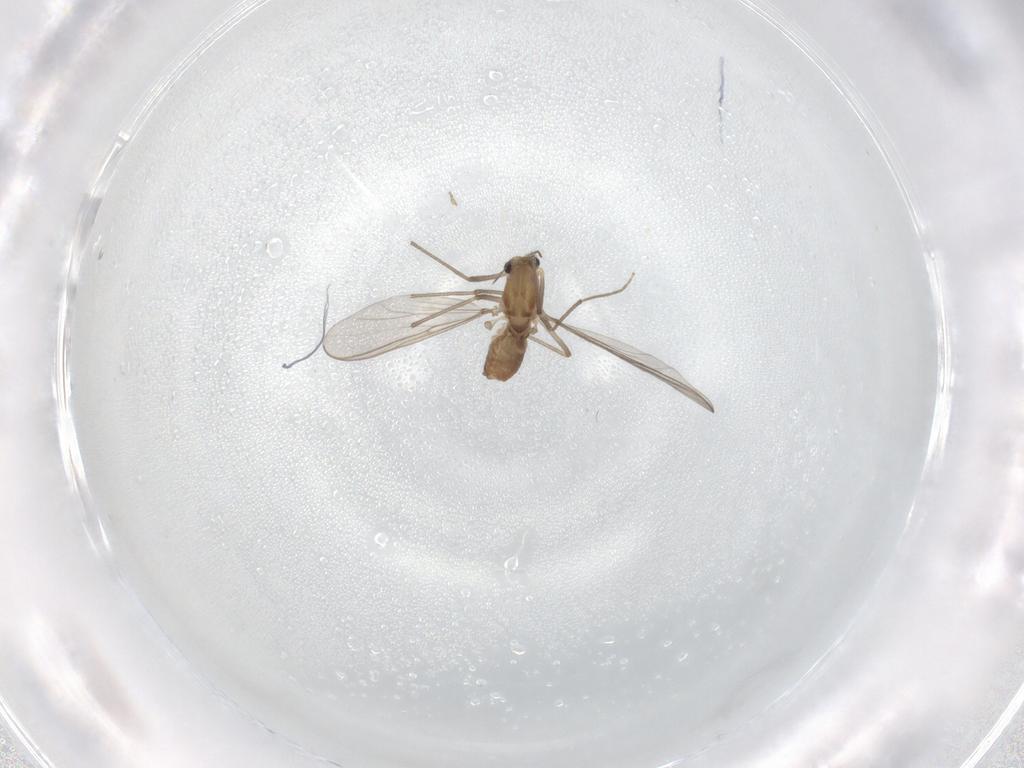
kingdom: Animalia
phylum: Arthropoda
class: Insecta
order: Diptera
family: Chironomidae
